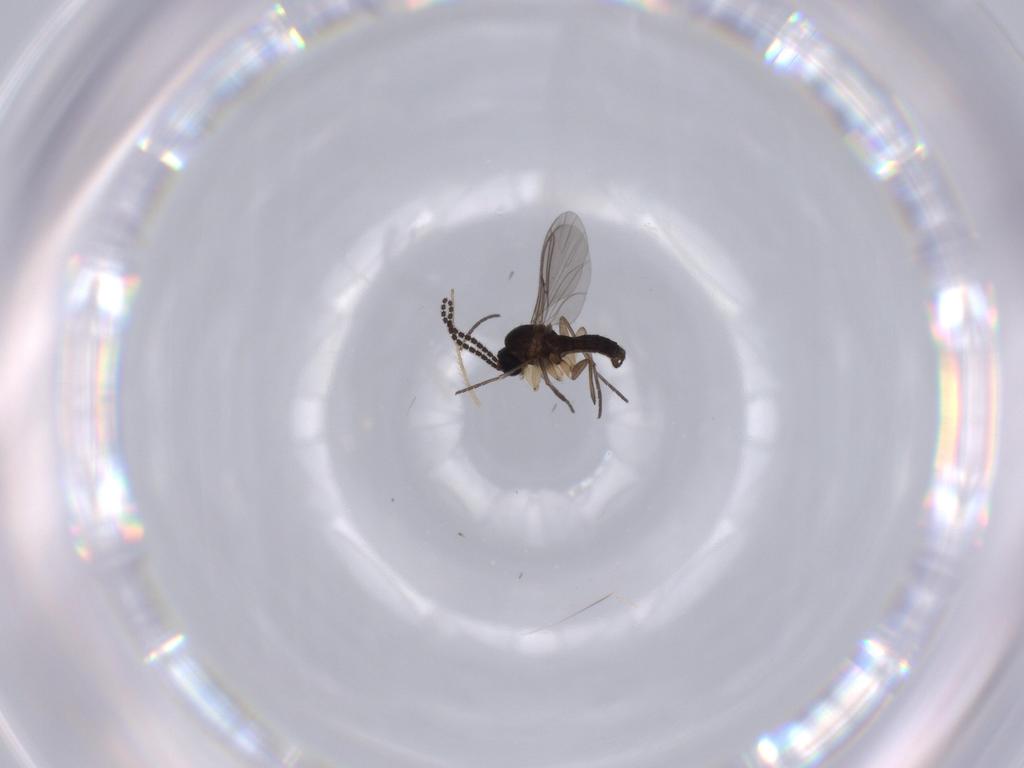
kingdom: Animalia
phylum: Arthropoda
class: Insecta
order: Diptera
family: Sciaridae
